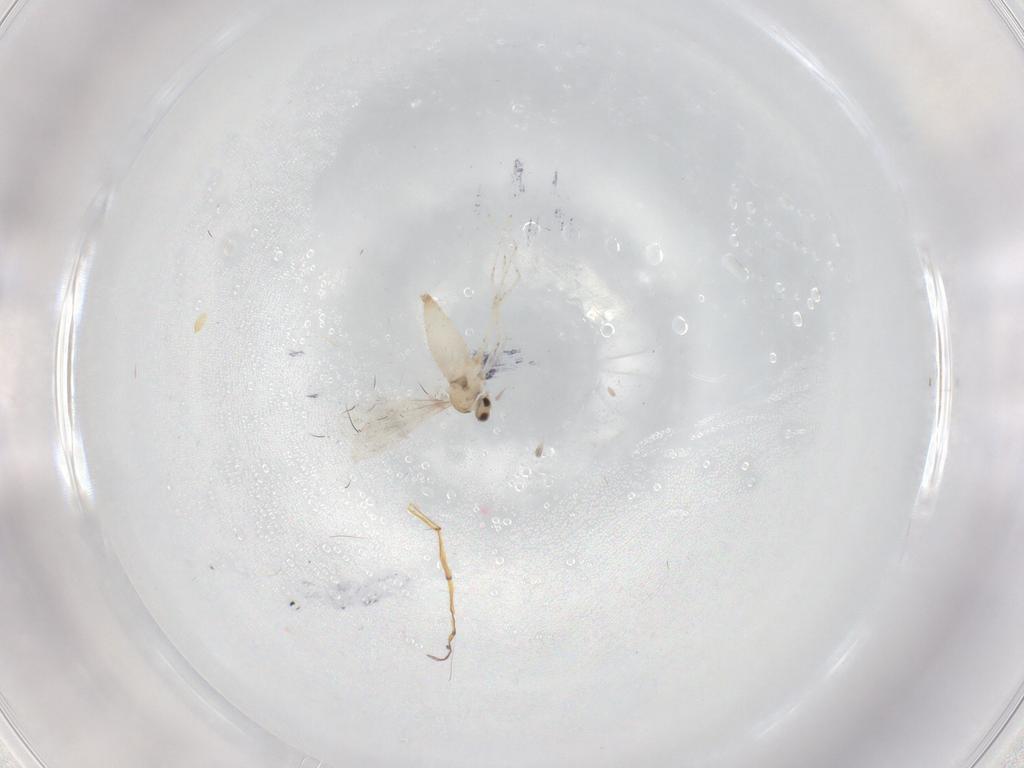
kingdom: Animalia
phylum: Arthropoda
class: Insecta
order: Diptera
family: Cecidomyiidae
